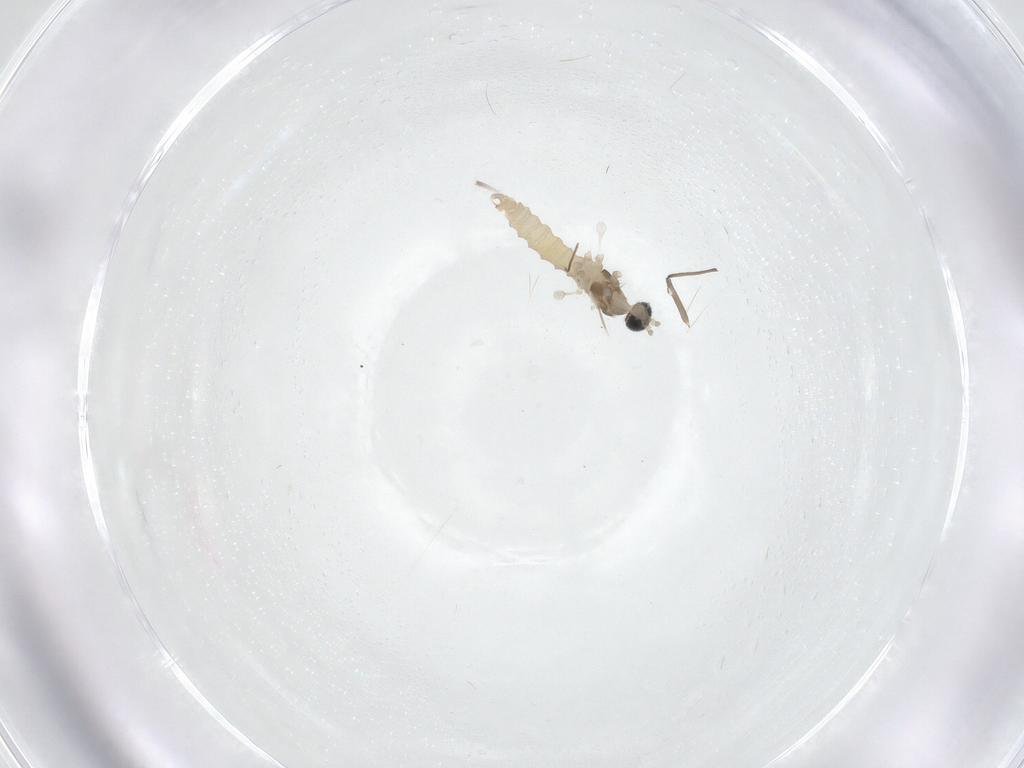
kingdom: Animalia
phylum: Arthropoda
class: Insecta
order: Diptera
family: Cecidomyiidae
